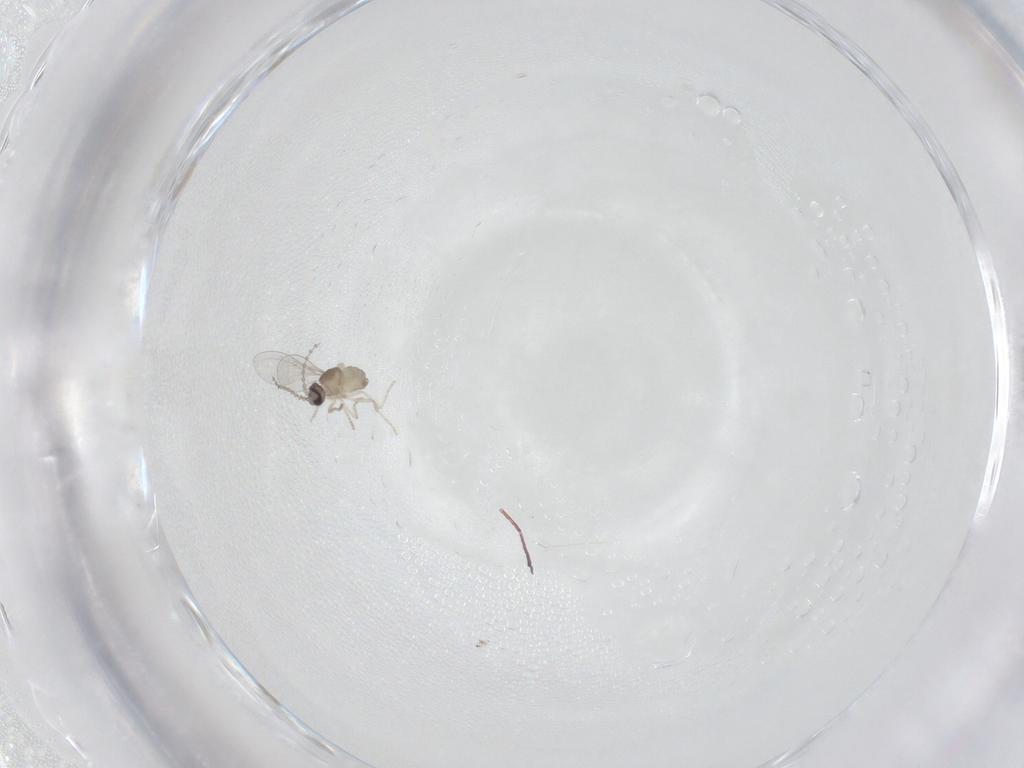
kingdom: Animalia
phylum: Arthropoda
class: Insecta
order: Diptera
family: Cecidomyiidae
